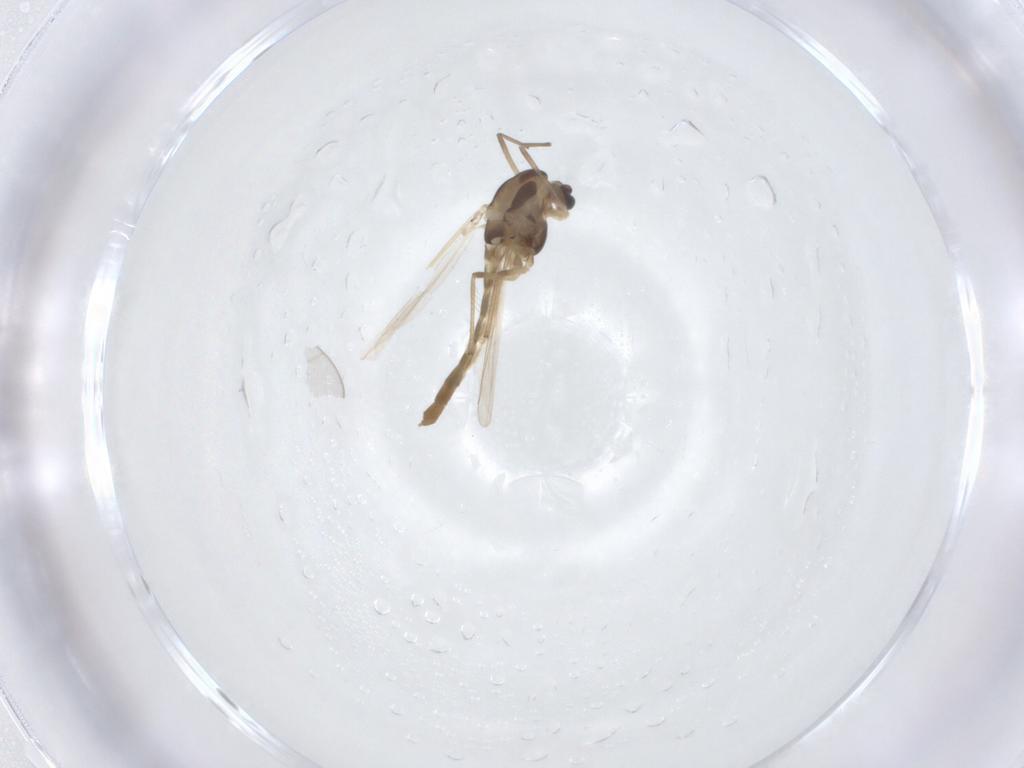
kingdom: Animalia
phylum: Arthropoda
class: Insecta
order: Diptera
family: Chironomidae
